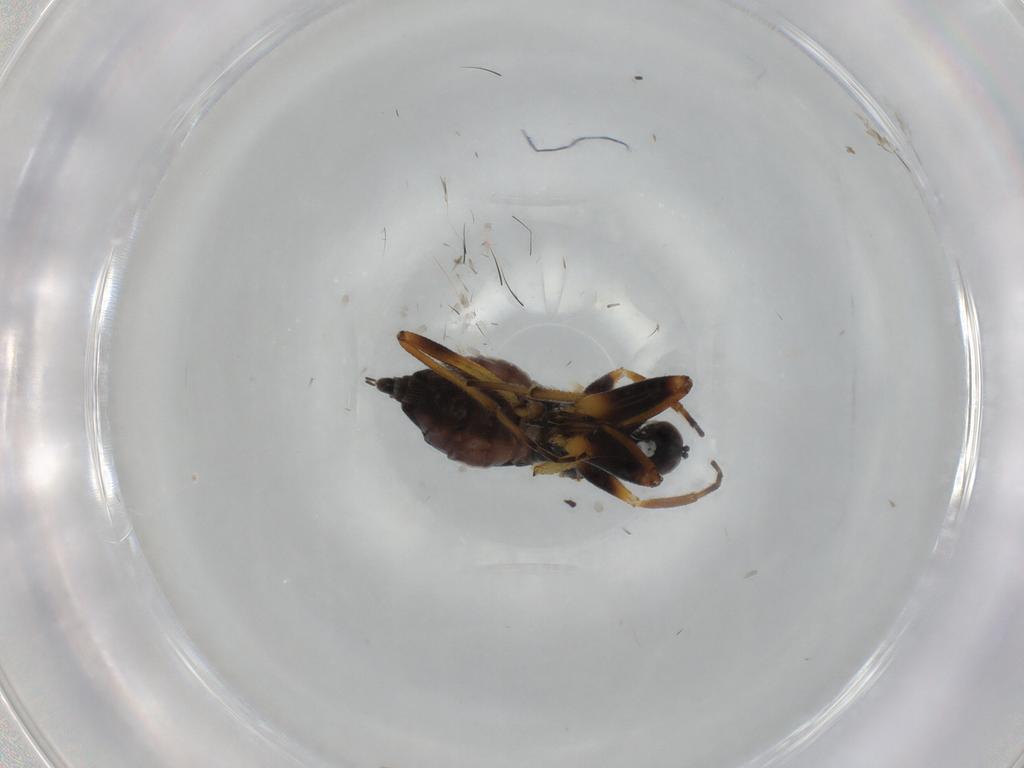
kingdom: Animalia
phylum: Arthropoda
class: Insecta
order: Diptera
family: Hybotidae
